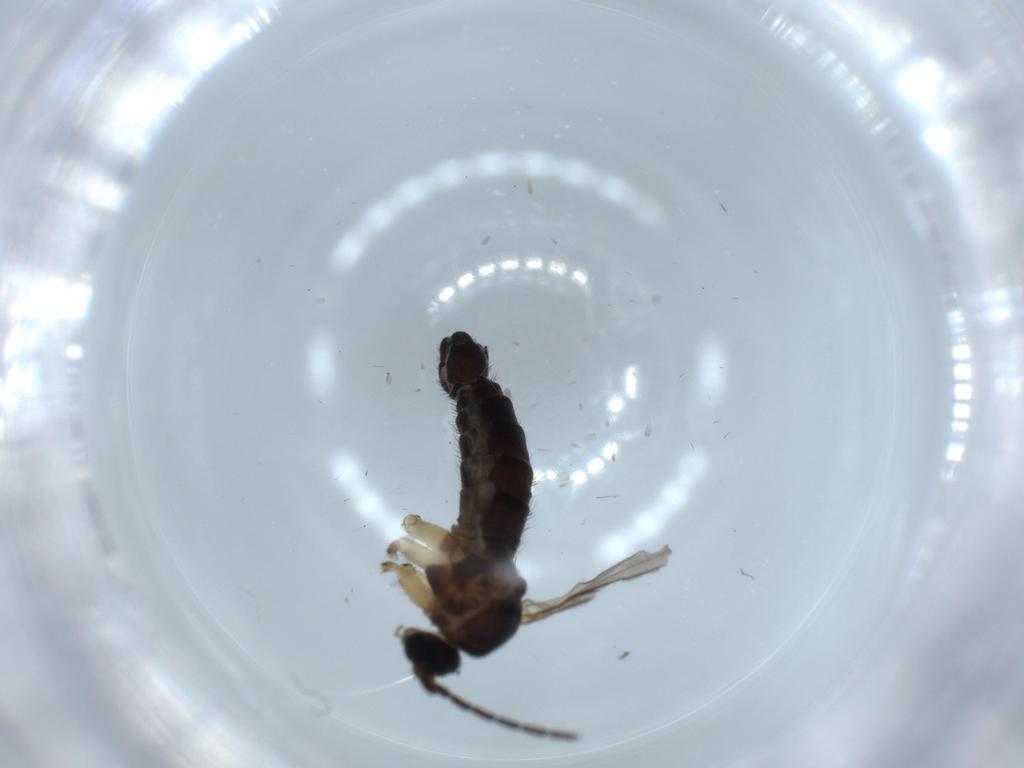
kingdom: Animalia
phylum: Arthropoda
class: Insecta
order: Diptera
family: Sciaridae
